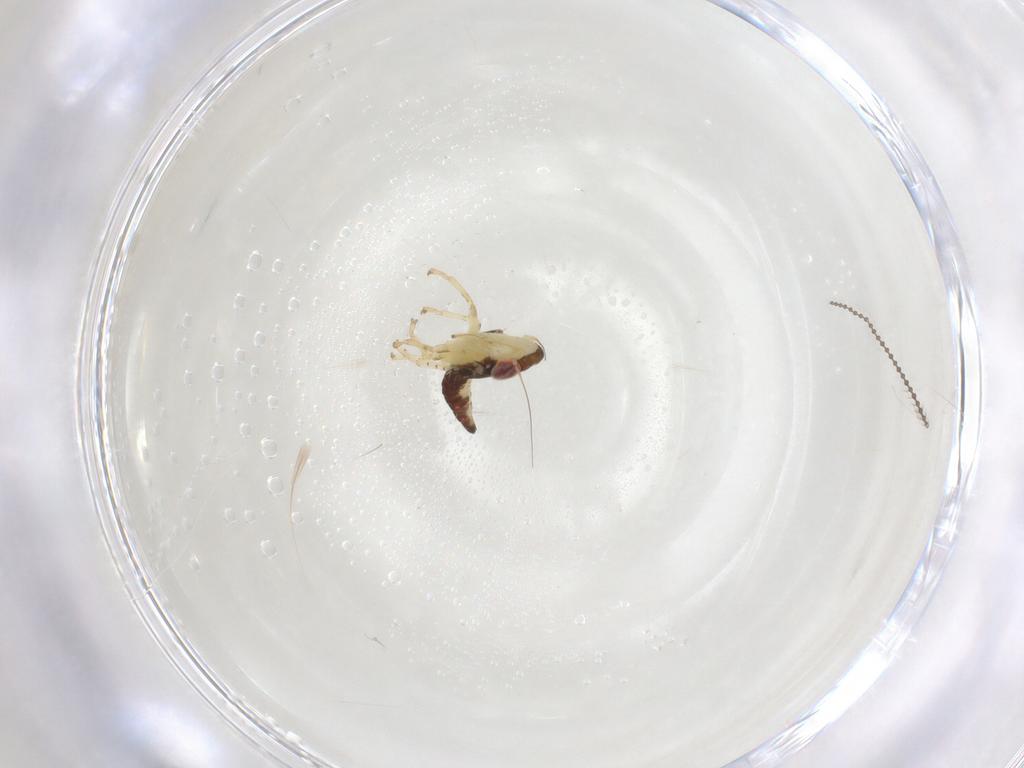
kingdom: Animalia
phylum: Arthropoda
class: Insecta
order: Hemiptera
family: Cicadellidae
